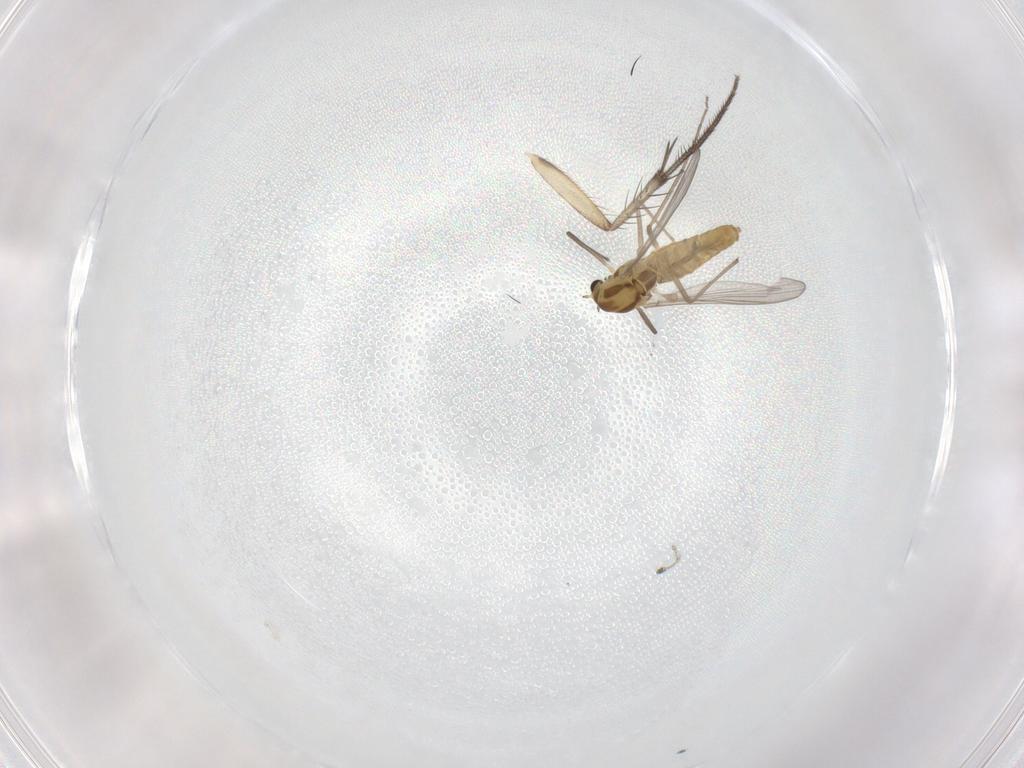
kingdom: Animalia
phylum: Arthropoda
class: Insecta
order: Diptera
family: Chironomidae
